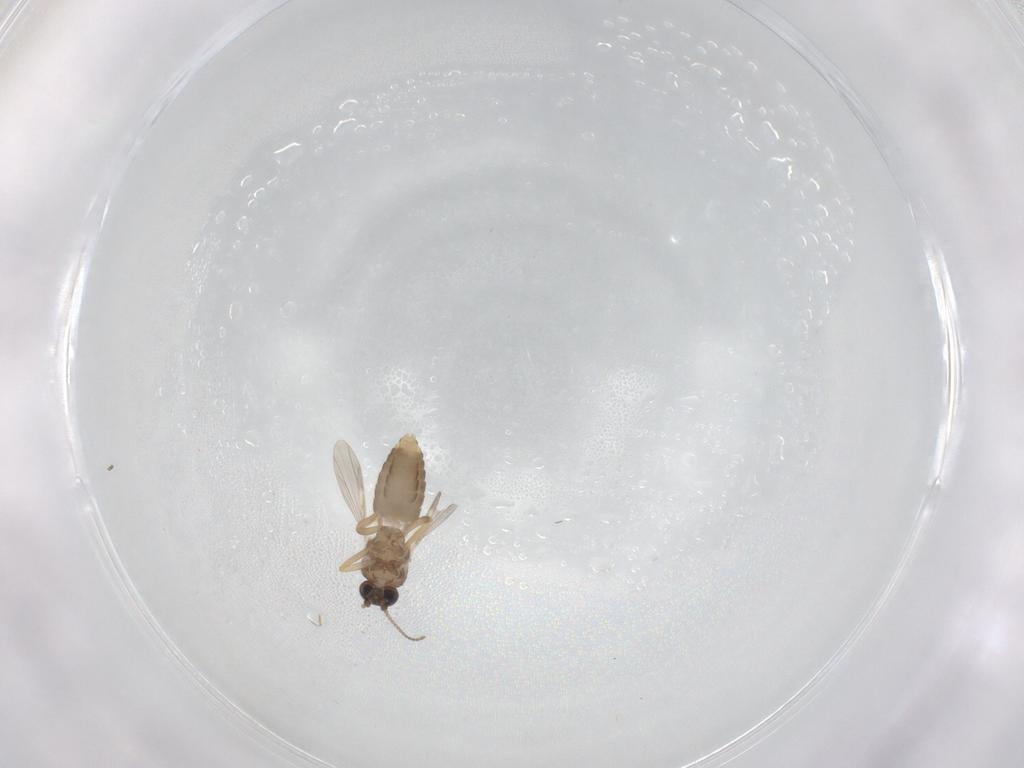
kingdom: Animalia
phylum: Arthropoda
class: Insecta
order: Diptera
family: Ceratopogonidae
